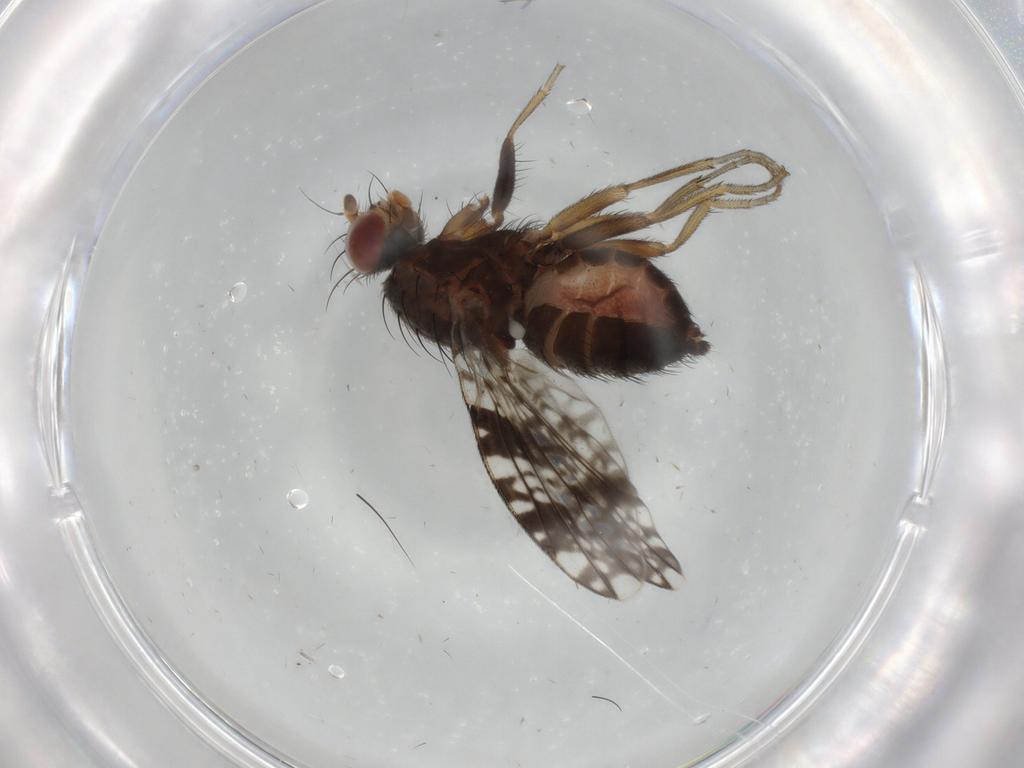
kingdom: Animalia
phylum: Arthropoda
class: Insecta
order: Diptera
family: Tephritidae
